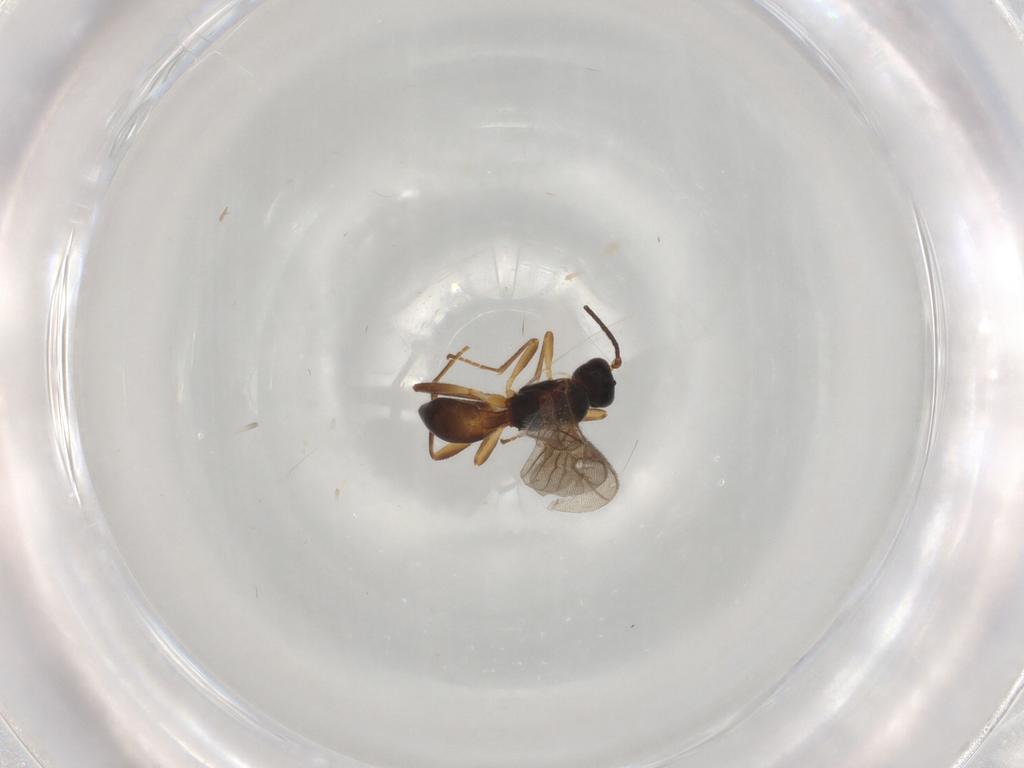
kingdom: Animalia
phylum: Arthropoda
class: Insecta
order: Hymenoptera
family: Braconidae
